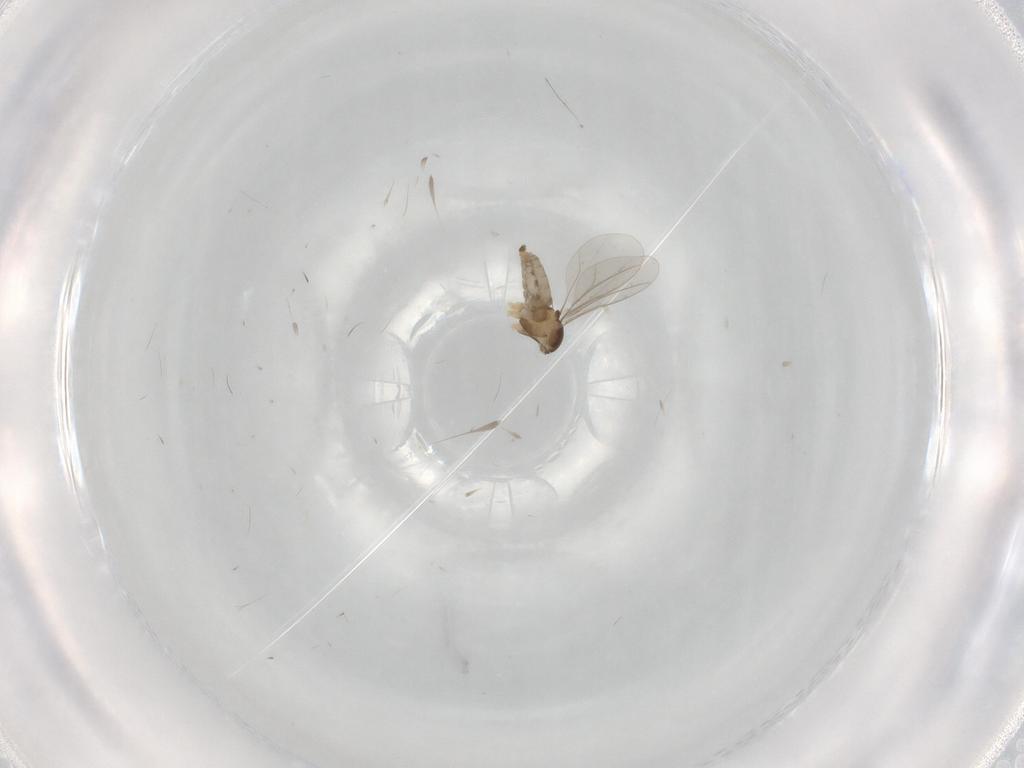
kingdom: Animalia
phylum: Arthropoda
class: Insecta
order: Diptera
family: Cecidomyiidae
